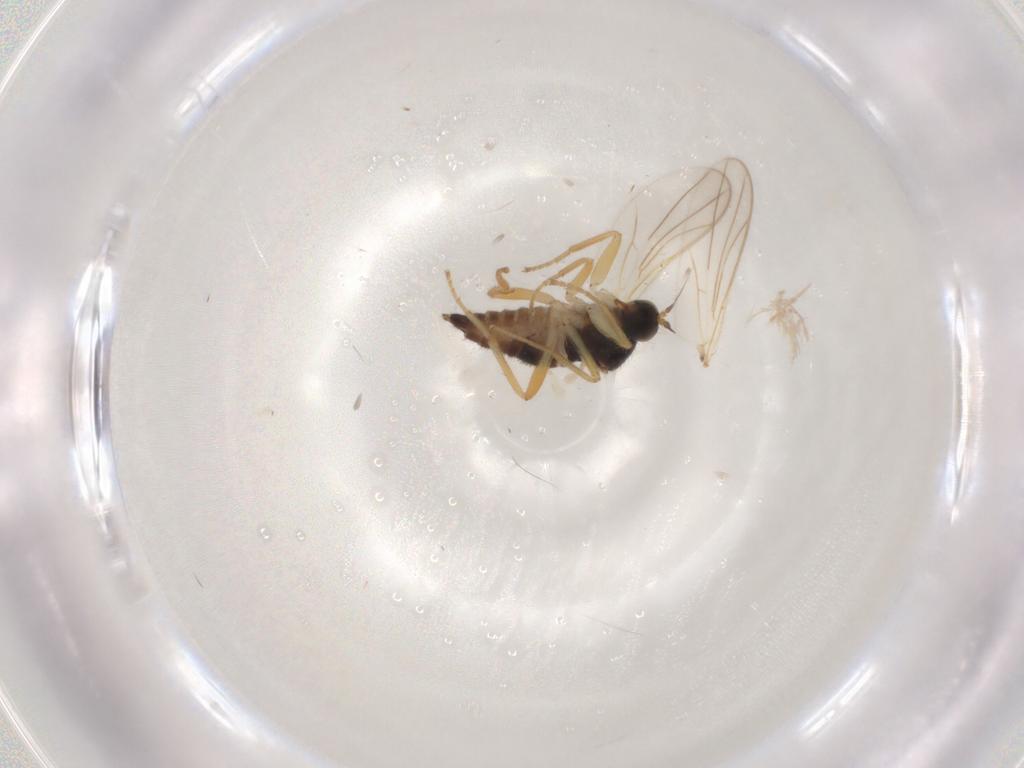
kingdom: Animalia
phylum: Arthropoda
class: Insecta
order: Diptera
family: Hybotidae
